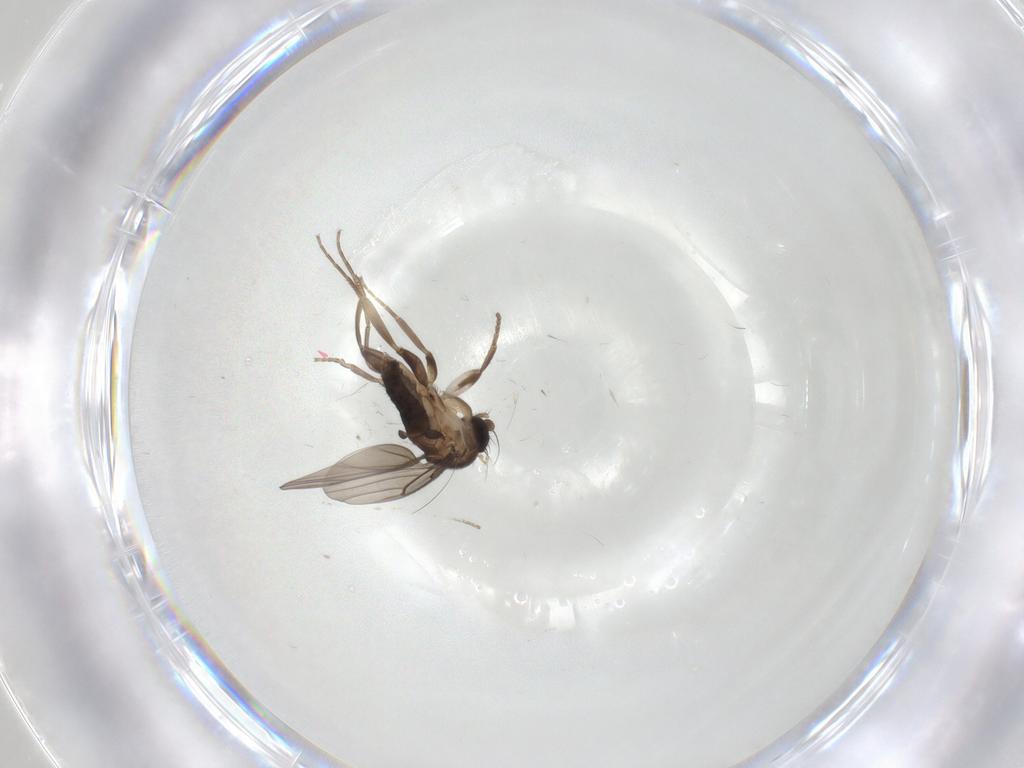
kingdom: Animalia
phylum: Arthropoda
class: Insecta
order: Diptera
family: Ceratopogonidae
